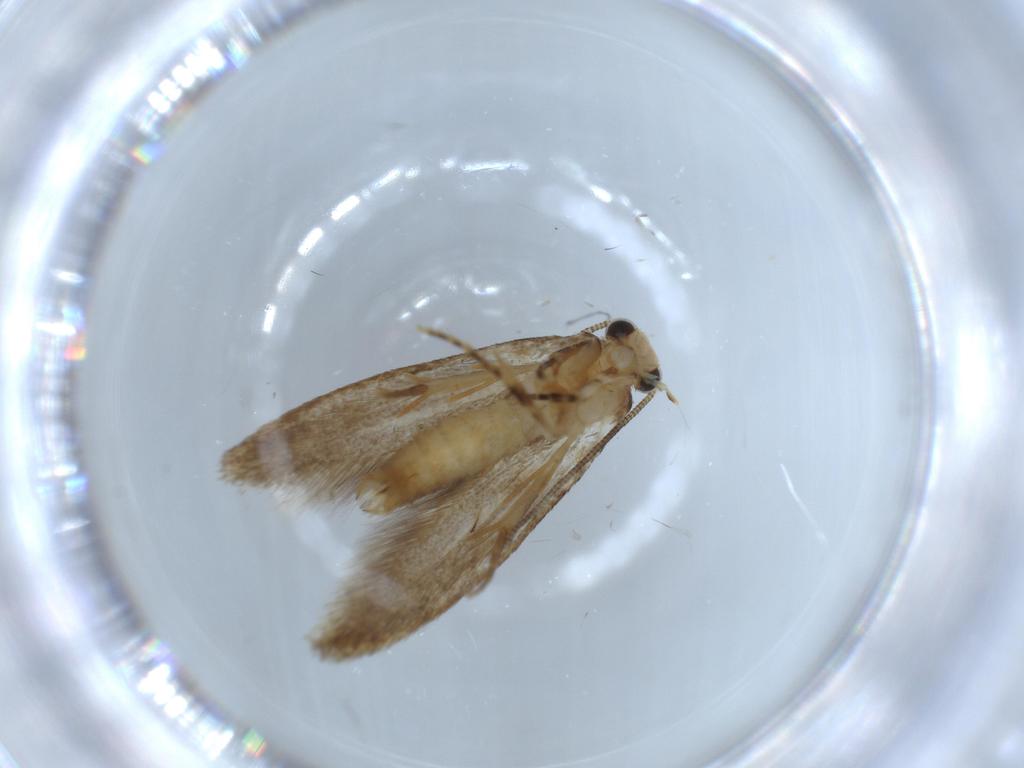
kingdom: Animalia
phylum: Arthropoda
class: Insecta
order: Lepidoptera
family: Tineidae
